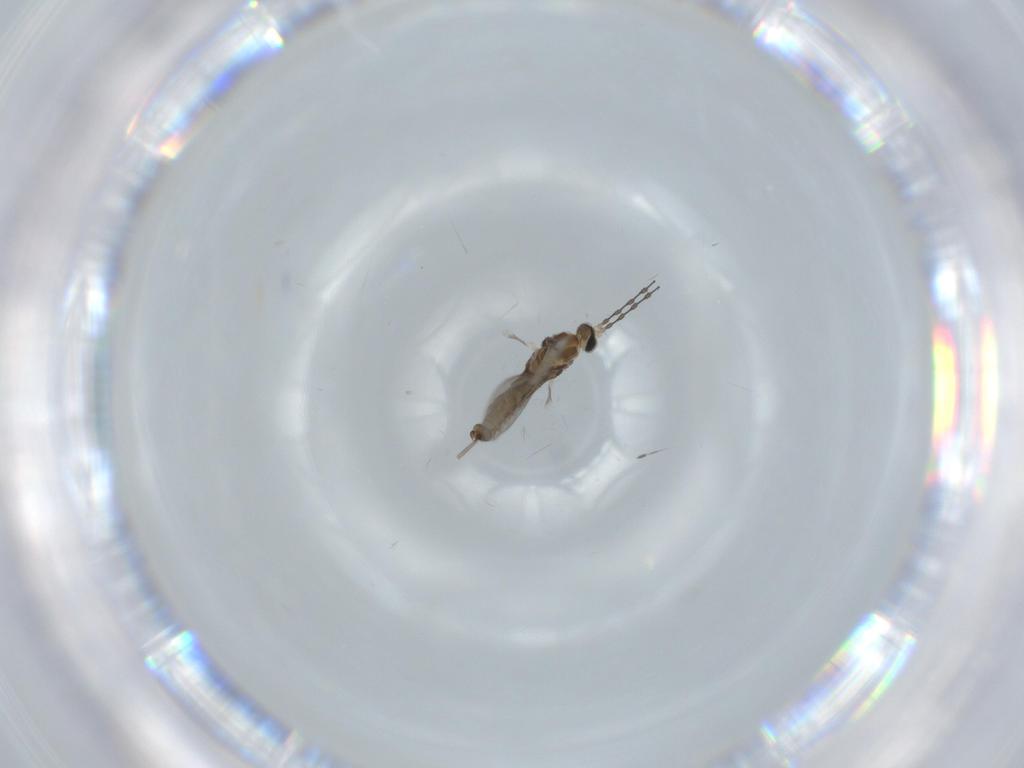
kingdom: Animalia
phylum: Arthropoda
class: Insecta
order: Diptera
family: Cecidomyiidae
